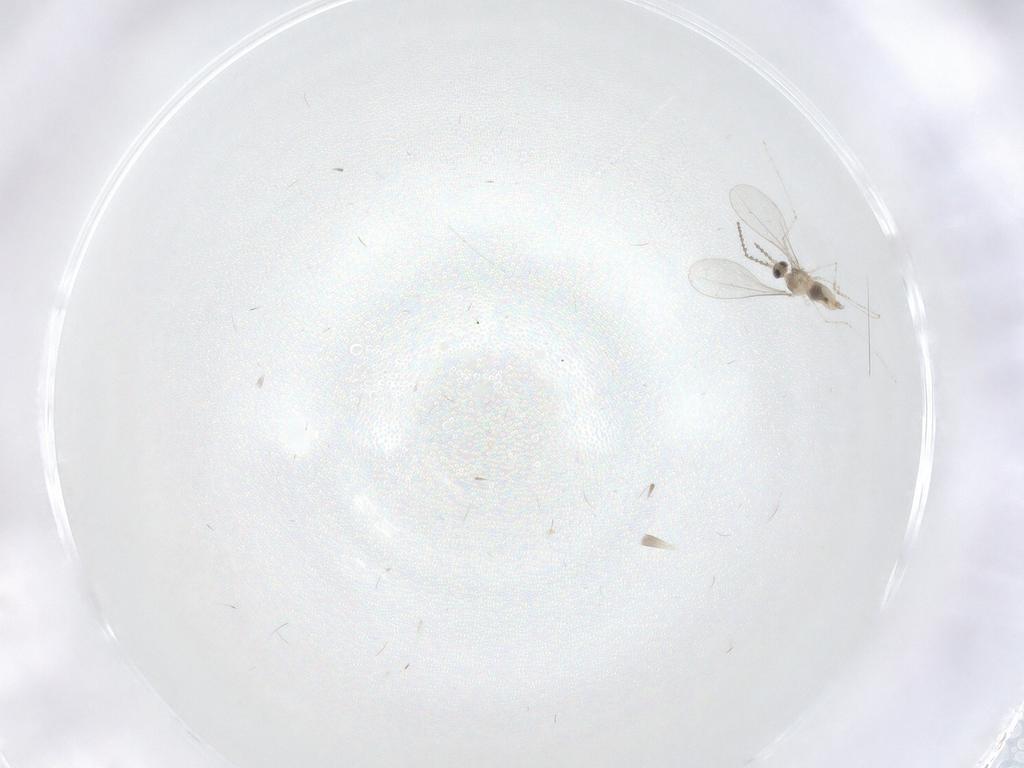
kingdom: Animalia
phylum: Arthropoda
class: Insecta
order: Diptera
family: Cecidomyiidae
